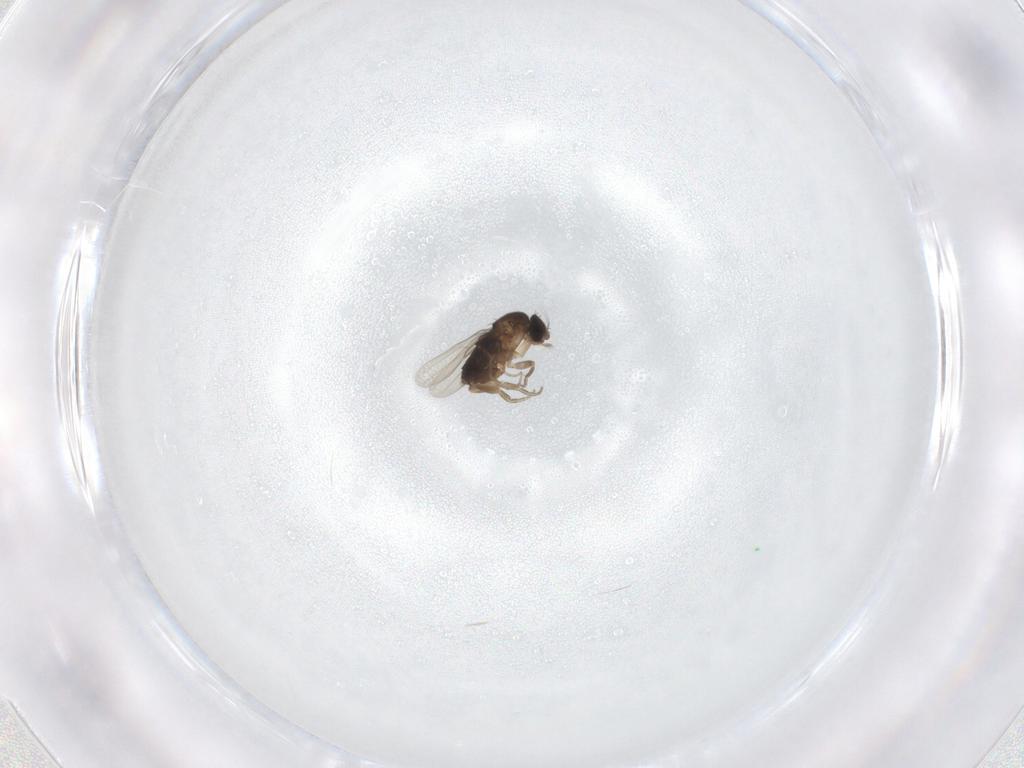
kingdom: Animalia
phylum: Arthropoda
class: Insecta
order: Diptera
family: Phoridae
